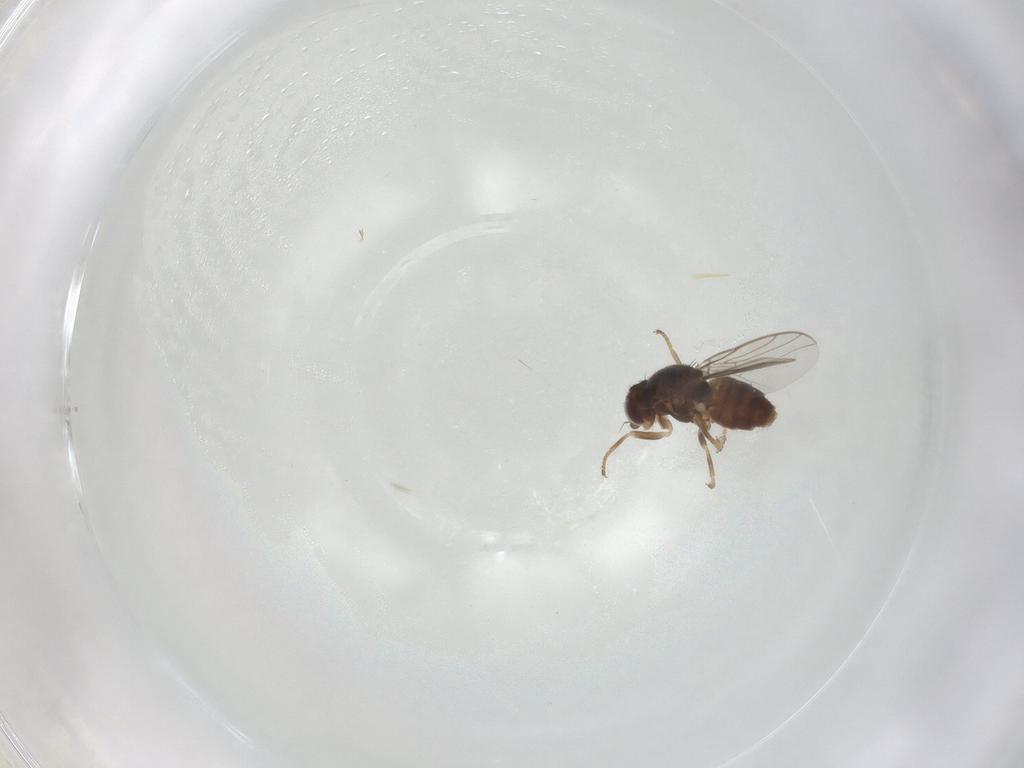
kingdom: Animalia
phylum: Arthropoda
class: Insecta
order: Diptera
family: Chloropidae
